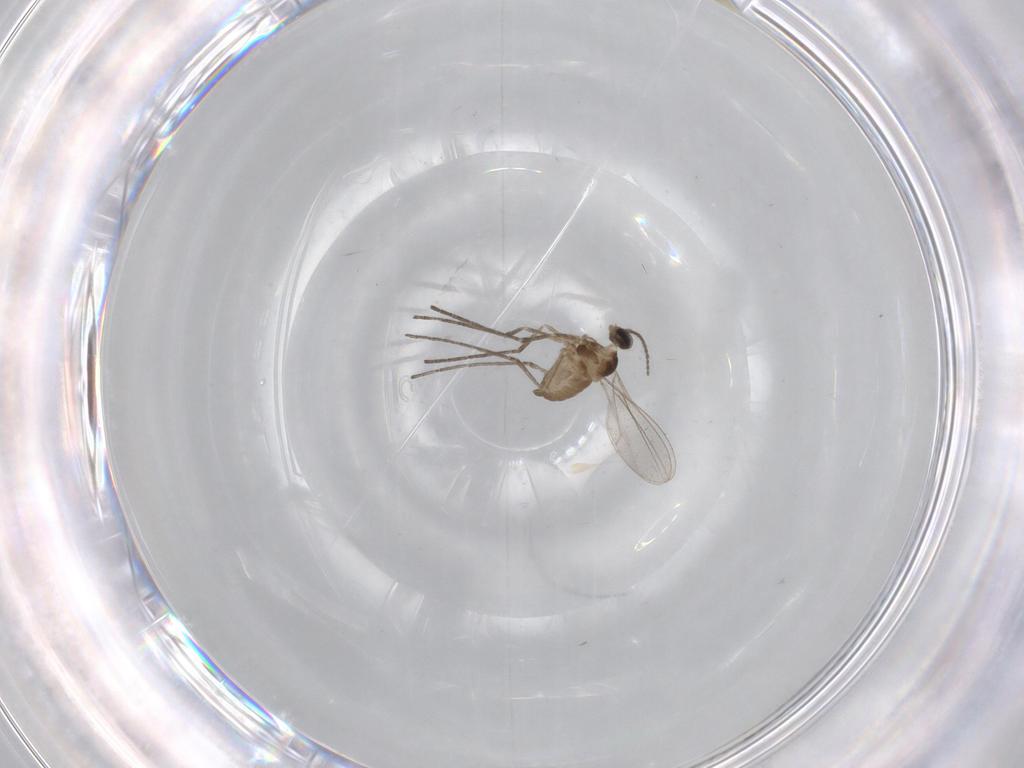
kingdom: Animalia
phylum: Arthropoda
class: Insecta
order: Diptera
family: Cecidomyiidae
